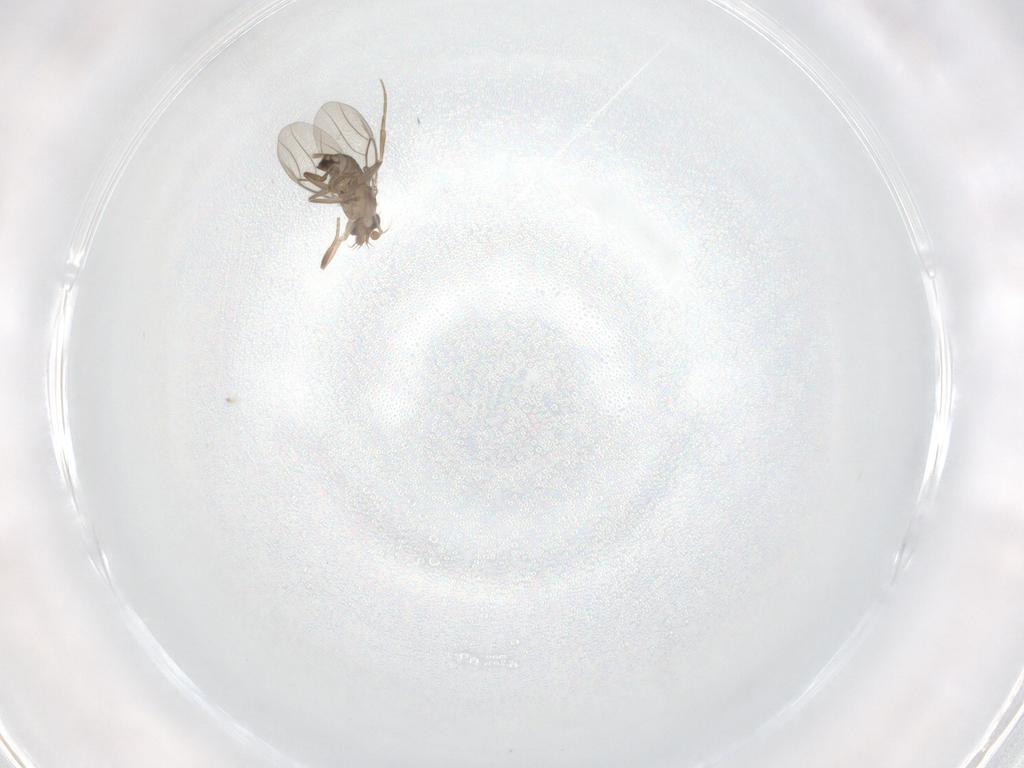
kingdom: Animalia
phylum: Arthropoda
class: Insecta
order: Diptera
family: Phoridae
